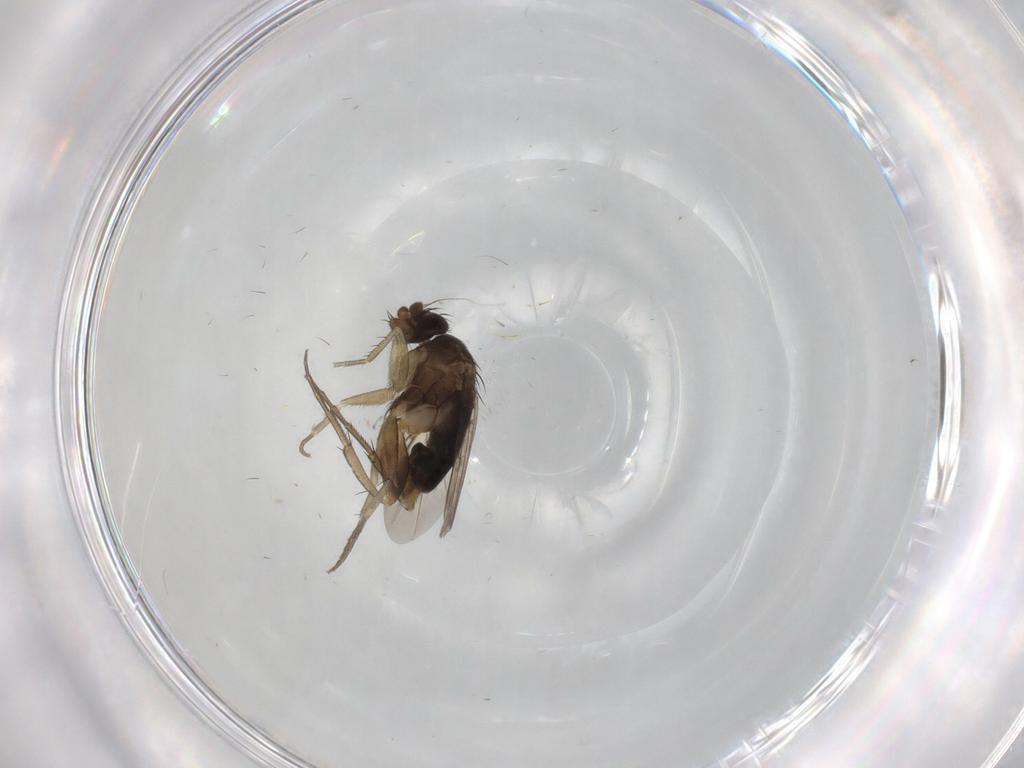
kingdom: Animalia
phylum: Arthropoda
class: Insecta
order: Diptera
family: Phoridae
